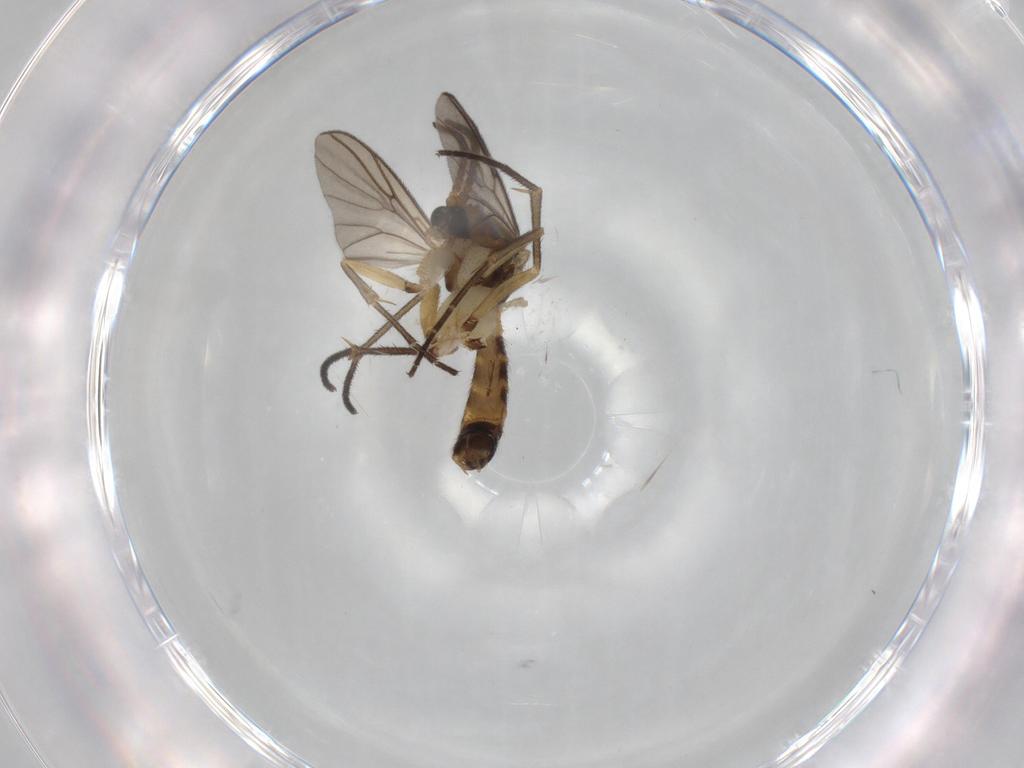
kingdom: Animalia
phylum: Arthropoda
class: Insecta
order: Diptera
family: Mycetophilidae
